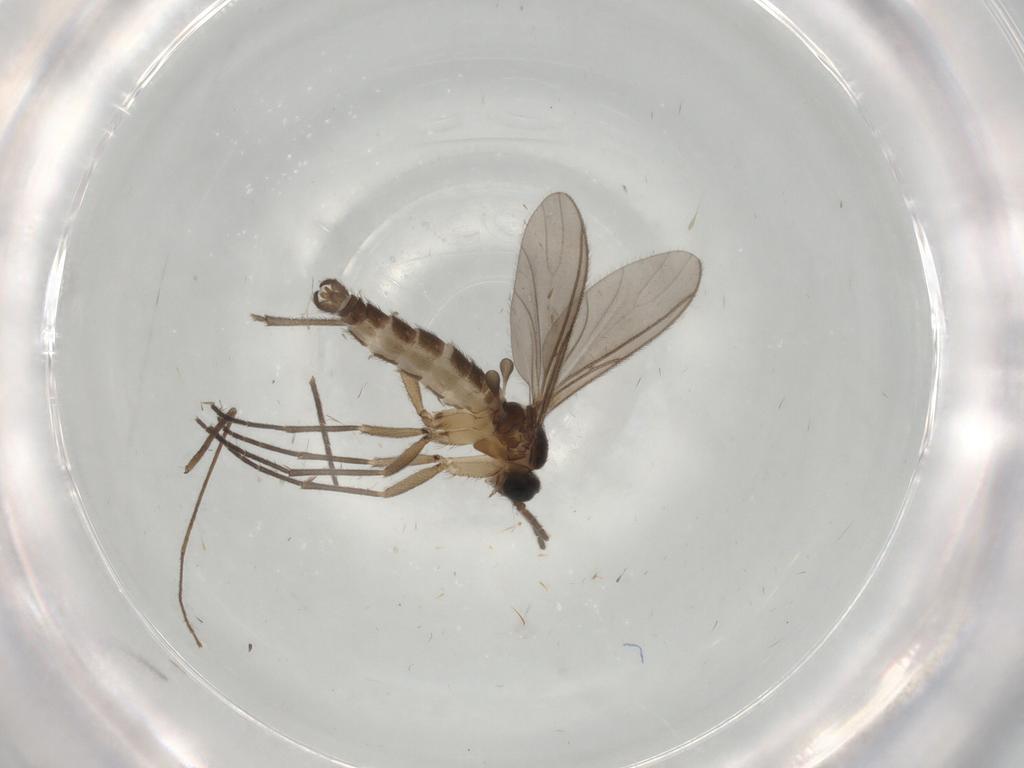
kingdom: Animalia
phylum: Arthropoda
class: Insecta
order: Diptera
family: Sciaridae
